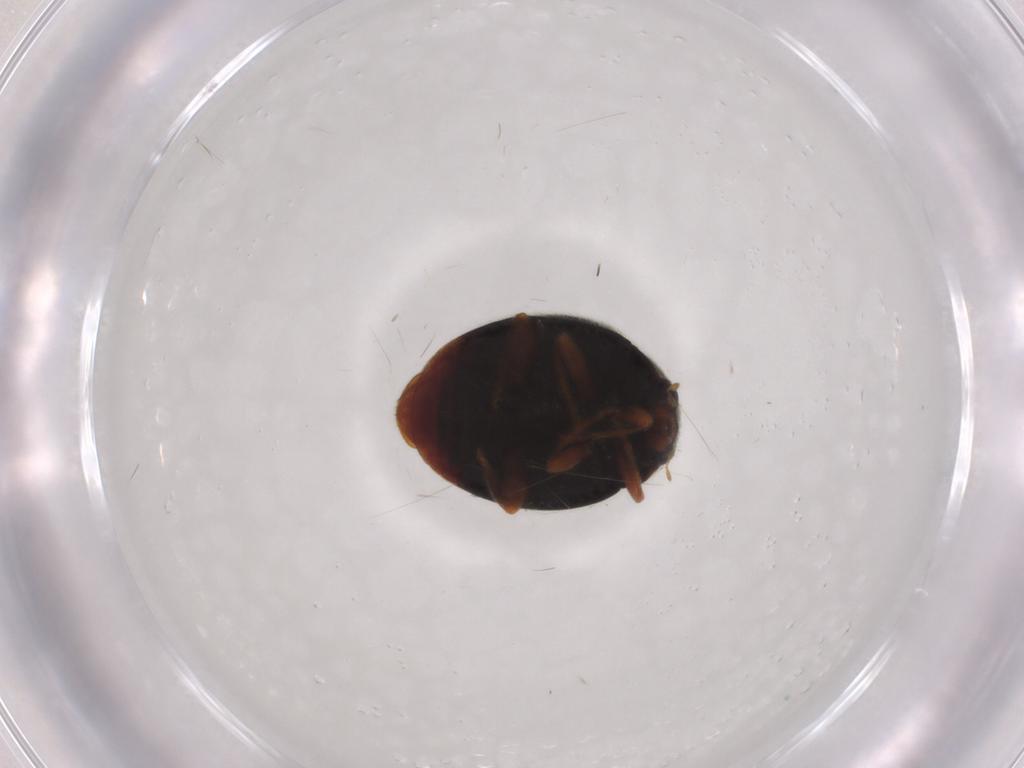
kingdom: Animalia
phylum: Arthropoda
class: Insecta
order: Coleoptera
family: Coccinellidae
